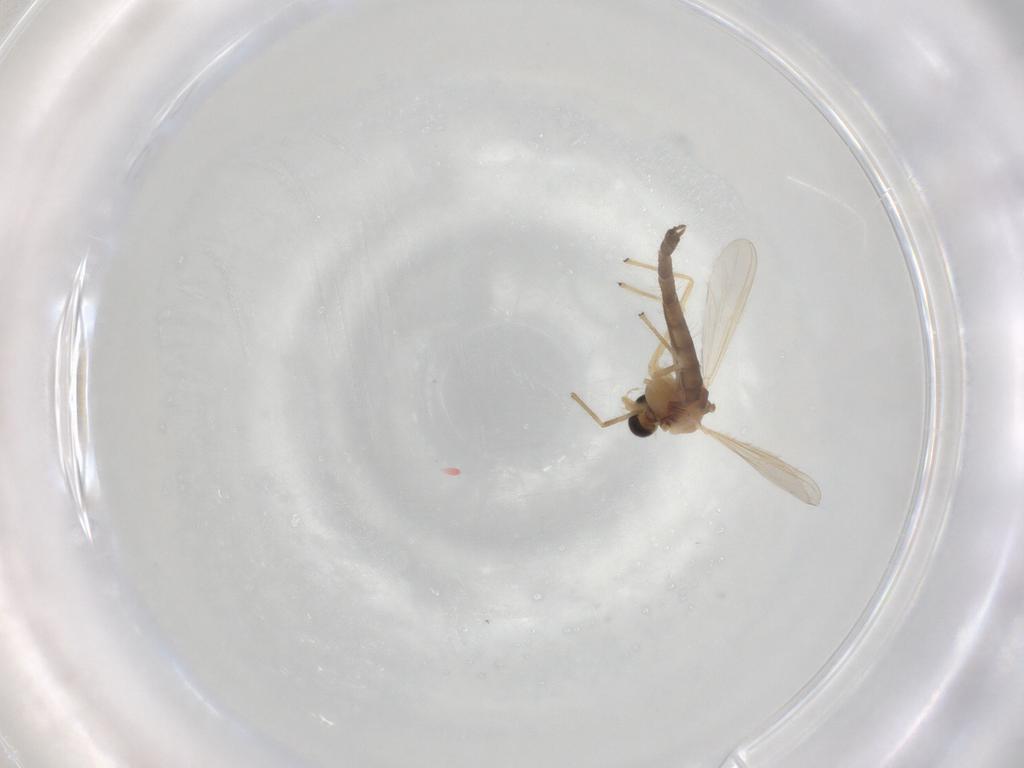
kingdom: Animalia
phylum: Arthropoda
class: Insecta
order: Diptera
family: Chironomidae
